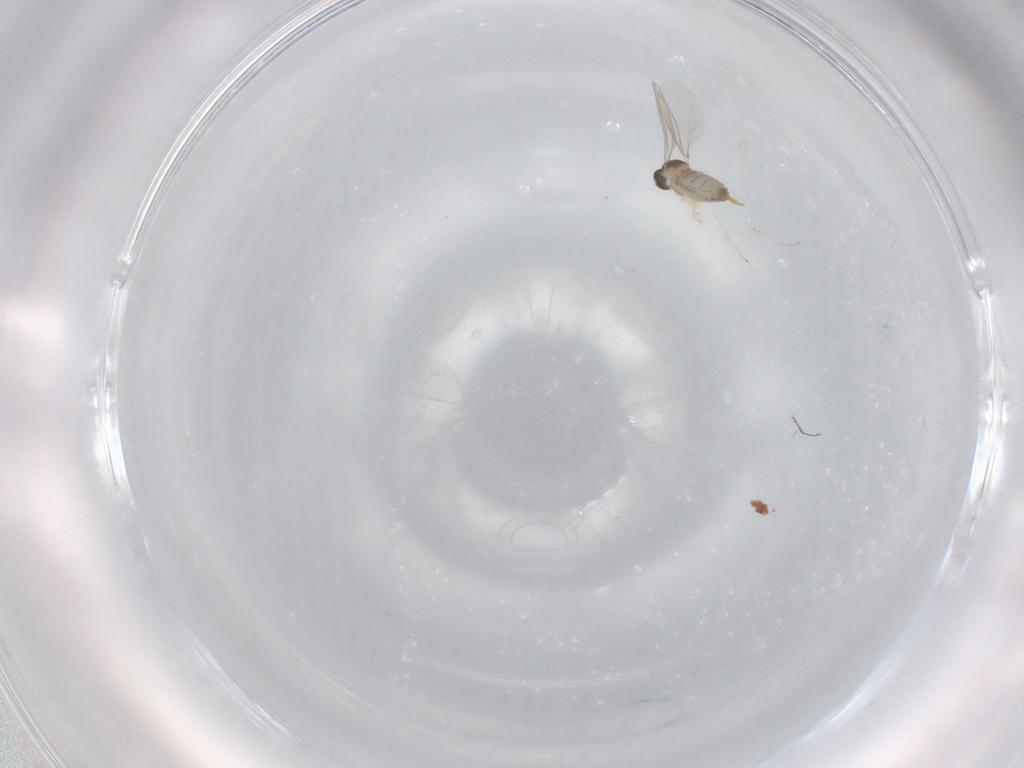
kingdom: Animalia
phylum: Arthropoda
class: Insecta
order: Diptera
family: Cecidomyiidae
